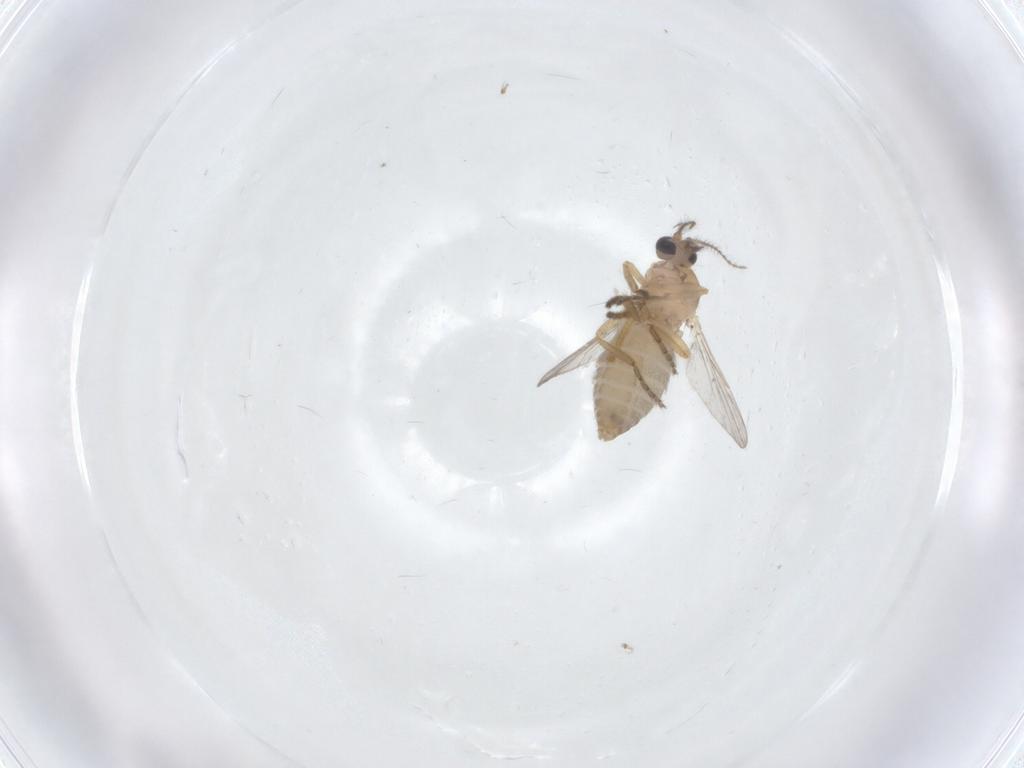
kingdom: Animalia
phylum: Arthropoda
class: Insecta
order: Diptera
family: Ceratopogonidae
